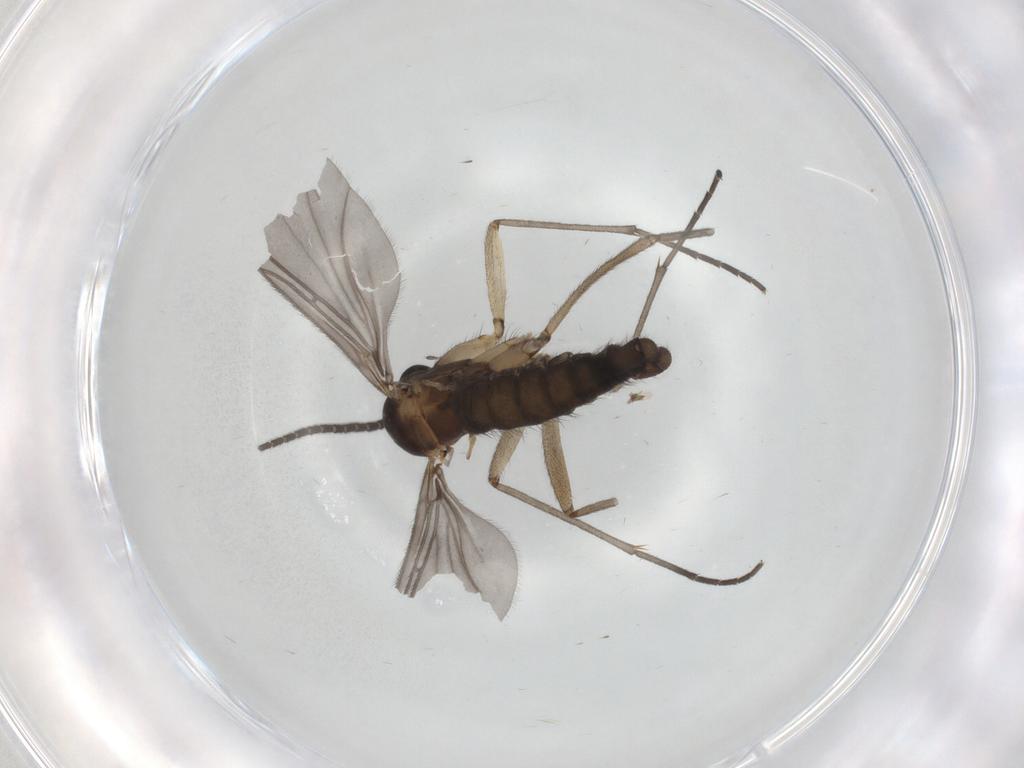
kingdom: Animalia
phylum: Arthropoda
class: Insecta
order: Diptera
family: Sciaridae
